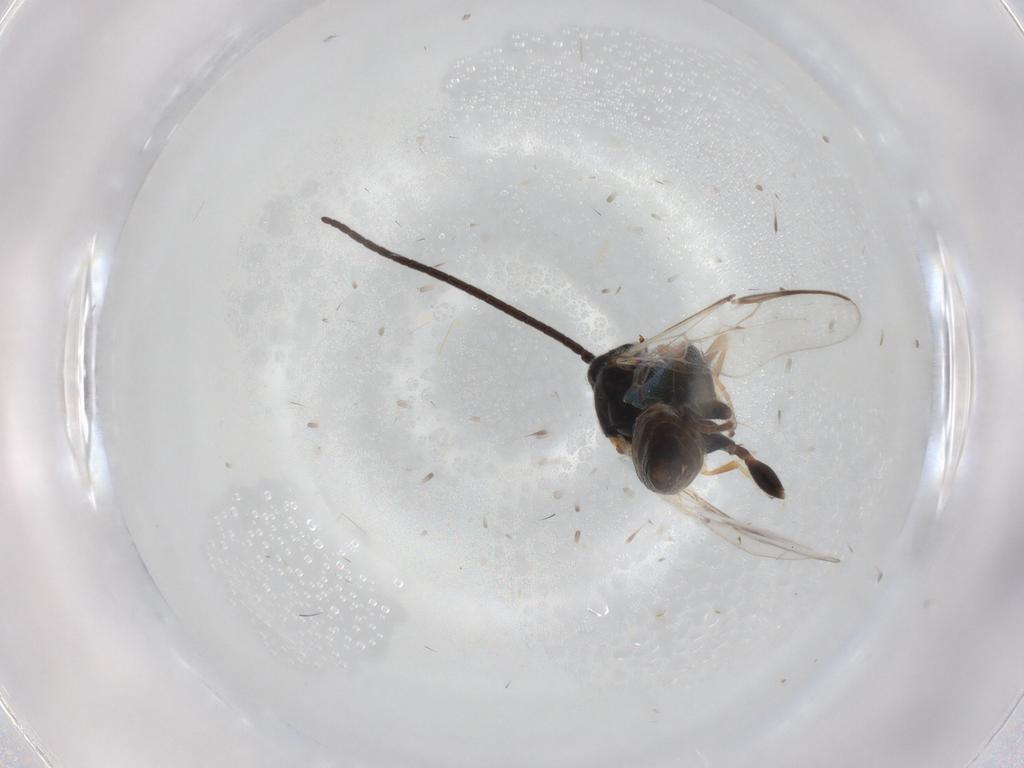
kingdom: Animalia
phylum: Arthropoda
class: Insecta
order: Hymenoptera
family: Braconidae
